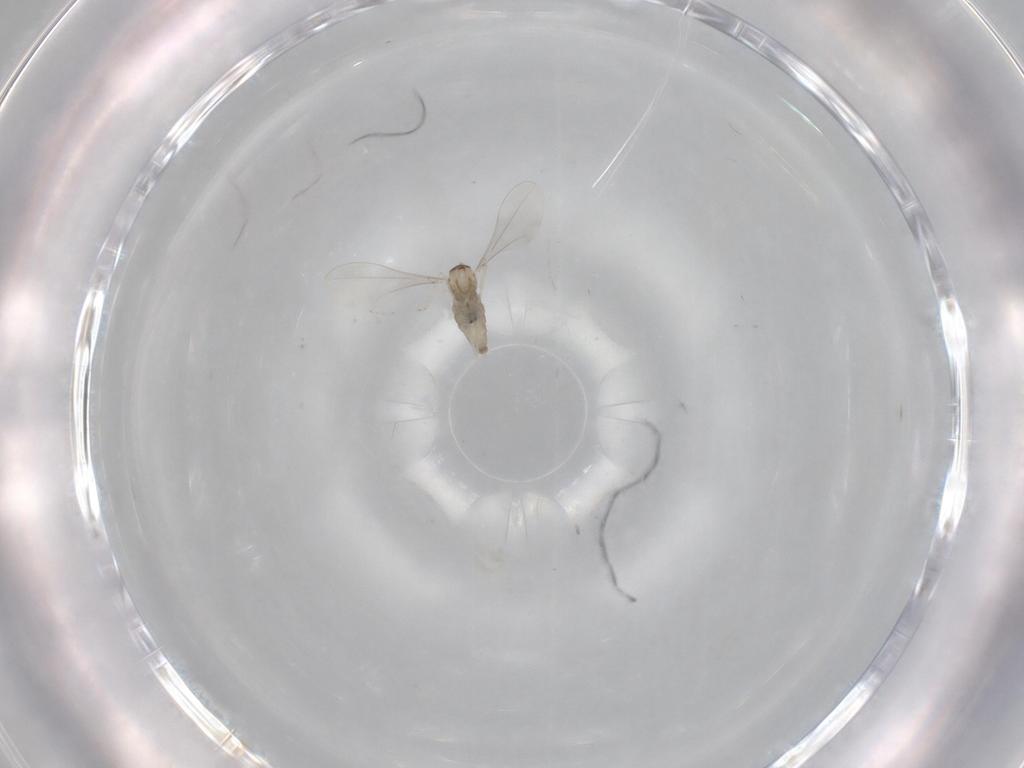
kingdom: Animalia
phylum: Arthropoda
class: Insecta
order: Diptera
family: Cecidomyiidae
